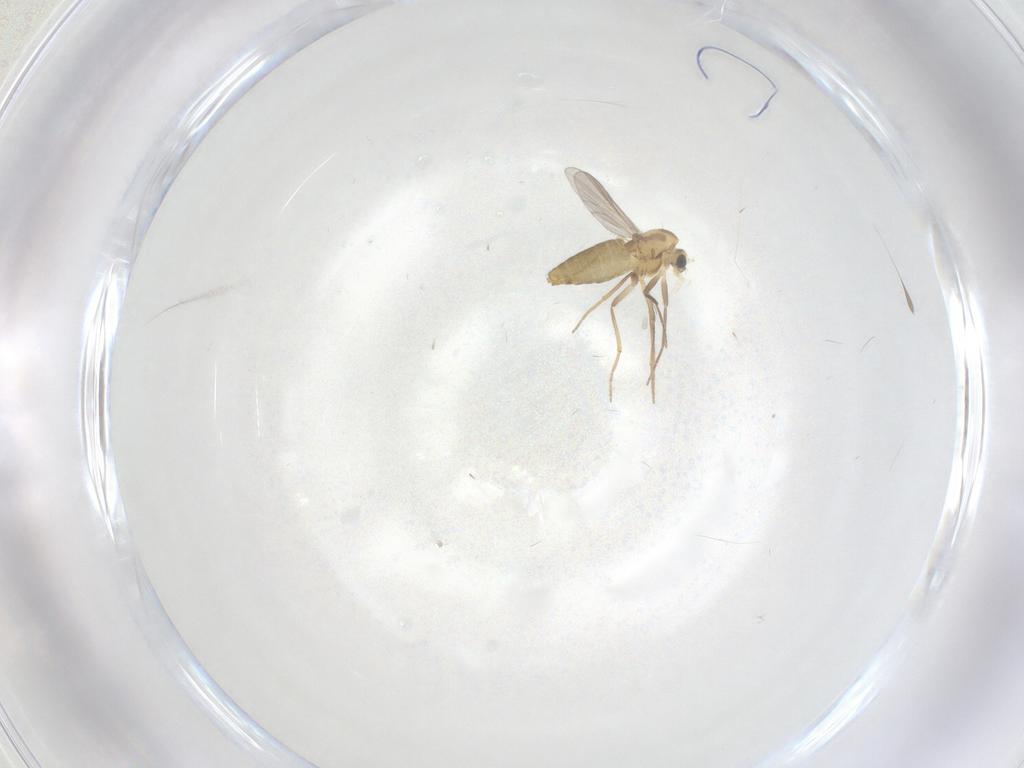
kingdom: Animalia
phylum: Arthropoda
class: Insecta
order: Diptera
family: Chironomidae
